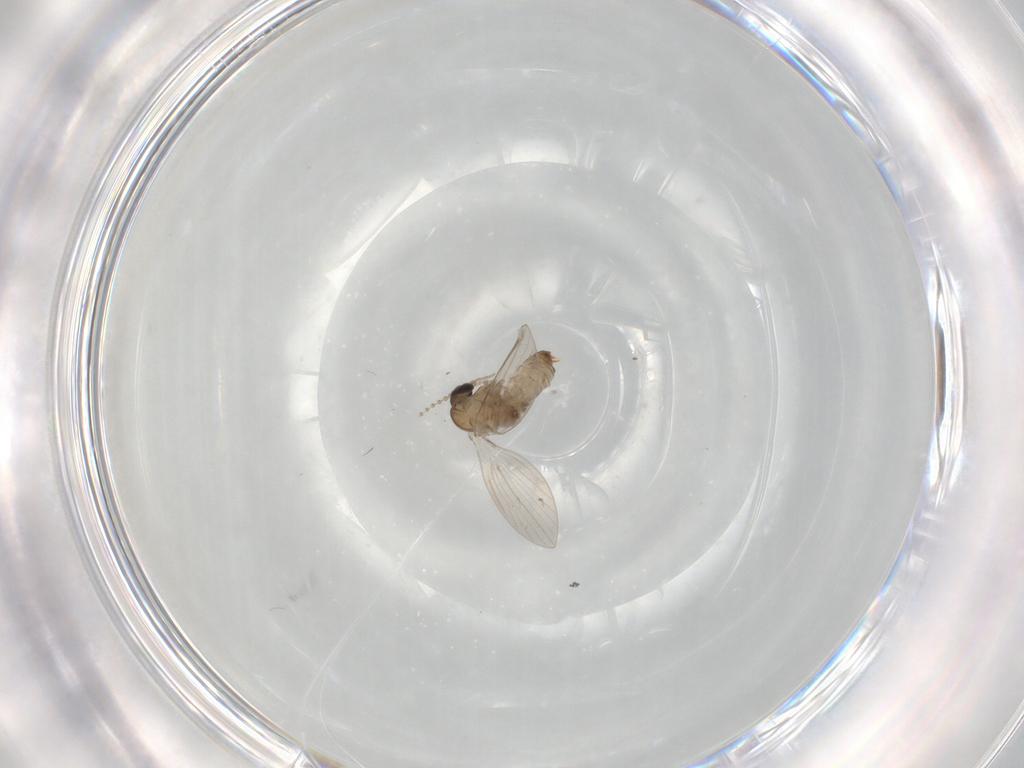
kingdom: Animalia
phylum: Arthropoda
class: Insecta
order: Diptera
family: Psychodidae
